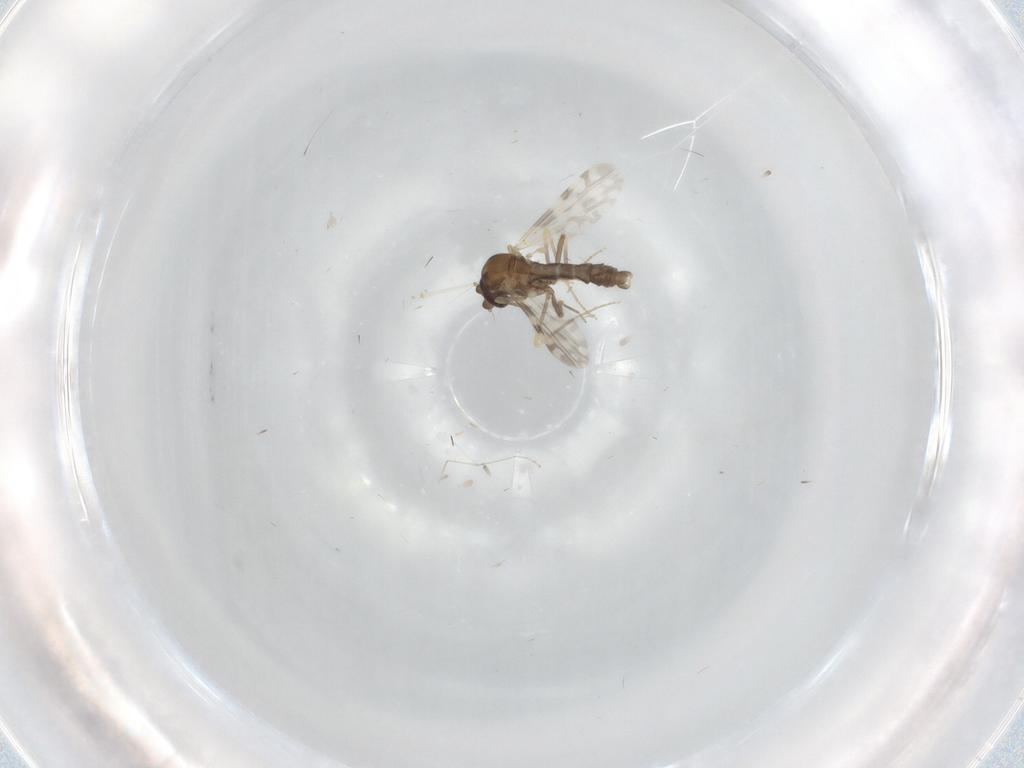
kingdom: Animalia
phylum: Arthropoda
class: Insecta
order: Diptera
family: Ceratopogonidae
